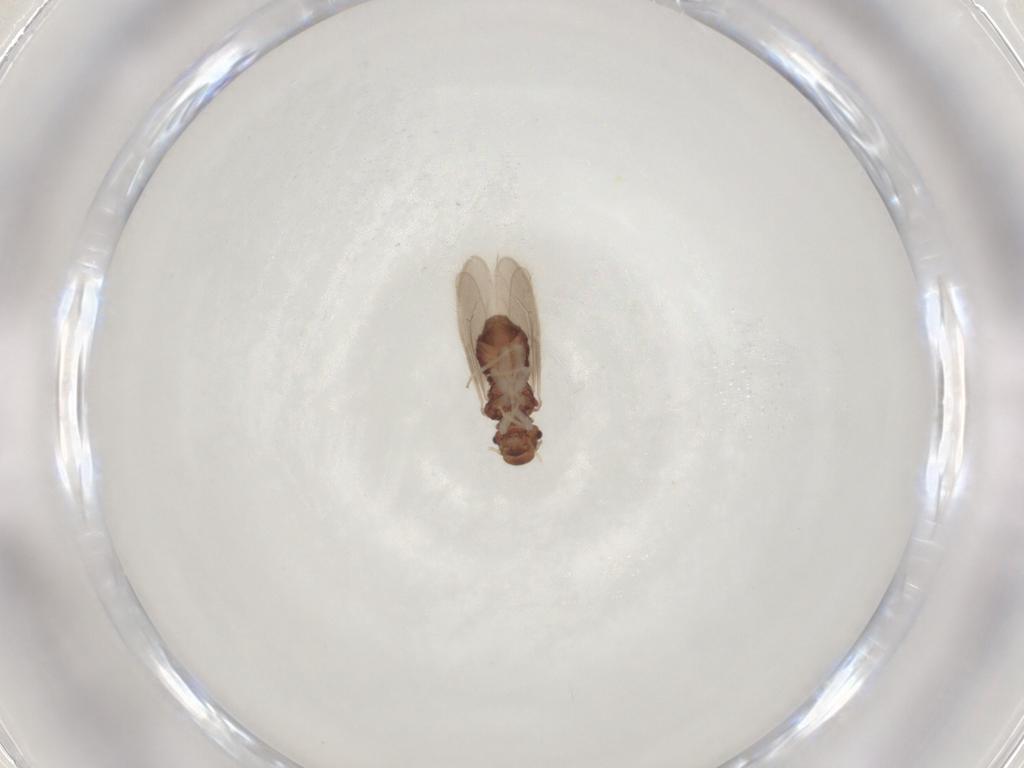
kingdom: Animalia
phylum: Arthropoda
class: Insecta
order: Psocodea
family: Archipsocidae
